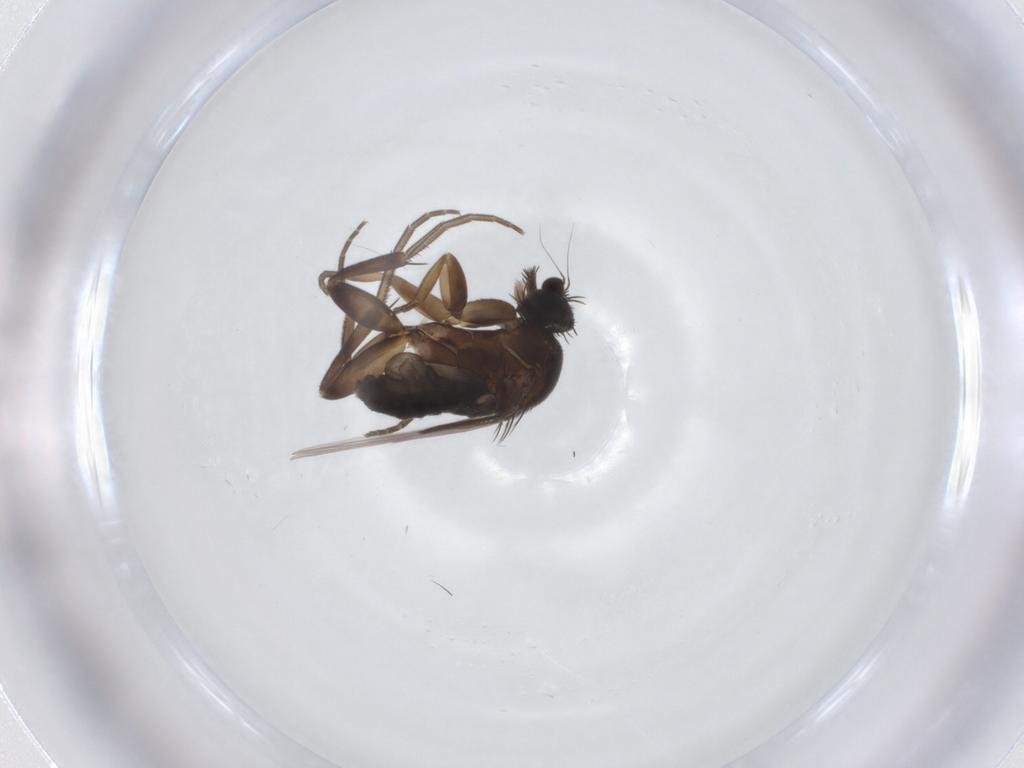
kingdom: Animalia
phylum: Arthropoda
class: Insecta
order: Diptera
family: Phoridae
